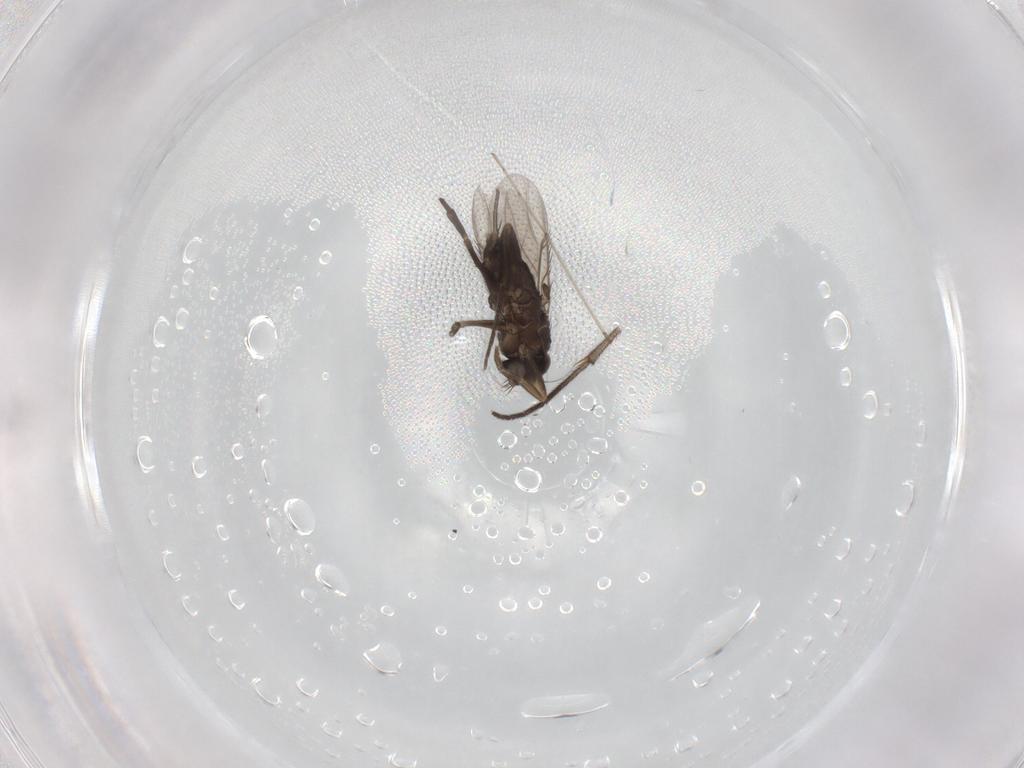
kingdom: Animalia
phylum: Arthropoda
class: Insecta
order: Diptera
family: Phoridae
